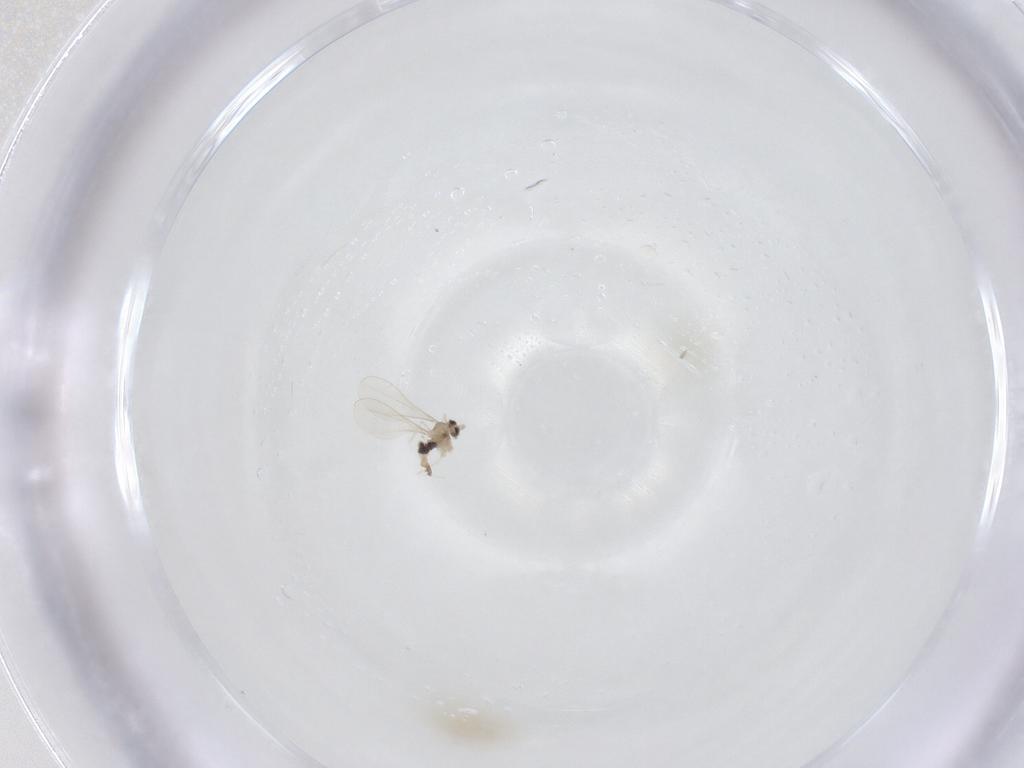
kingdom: Animalia
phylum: Arthropoda
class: Insecta
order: Diptera
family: Cecidomyiidae
